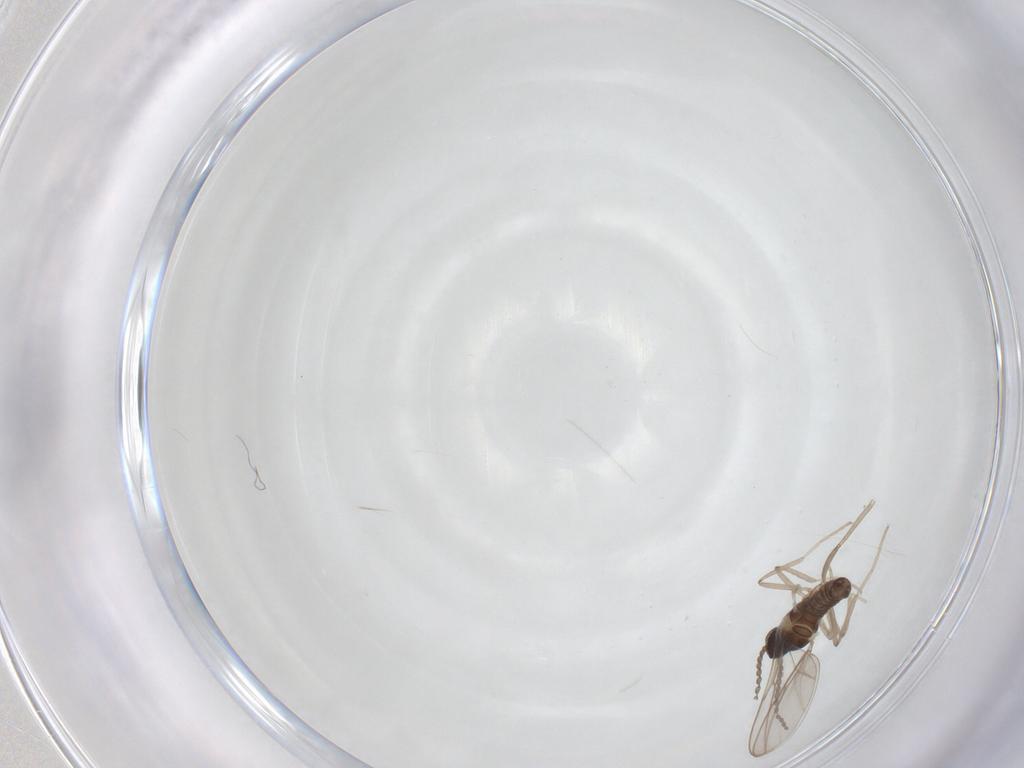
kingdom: Animalia
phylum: Arthropoda
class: Insecta
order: Diptera
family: Cecidomyiidae
